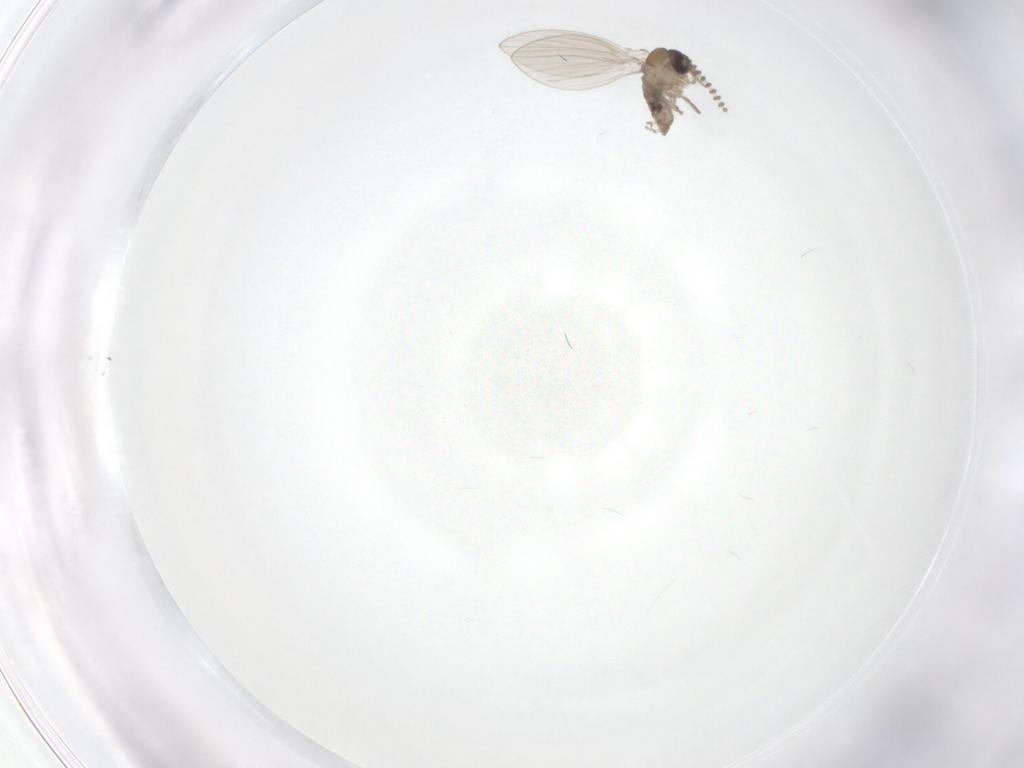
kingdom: Animalia
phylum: Arthropoda
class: Insecta
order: Diptera
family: Psychodidae
